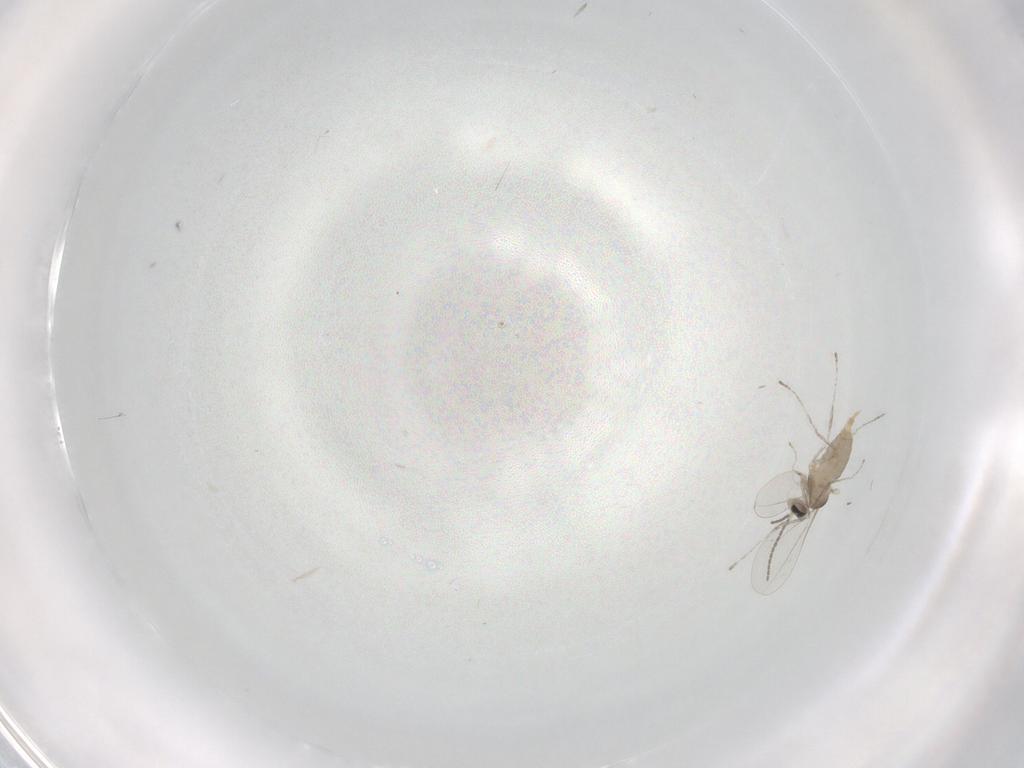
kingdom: Animalia
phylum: Arthropoda
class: Insecta
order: Diptera
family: Cecidomyiidae
